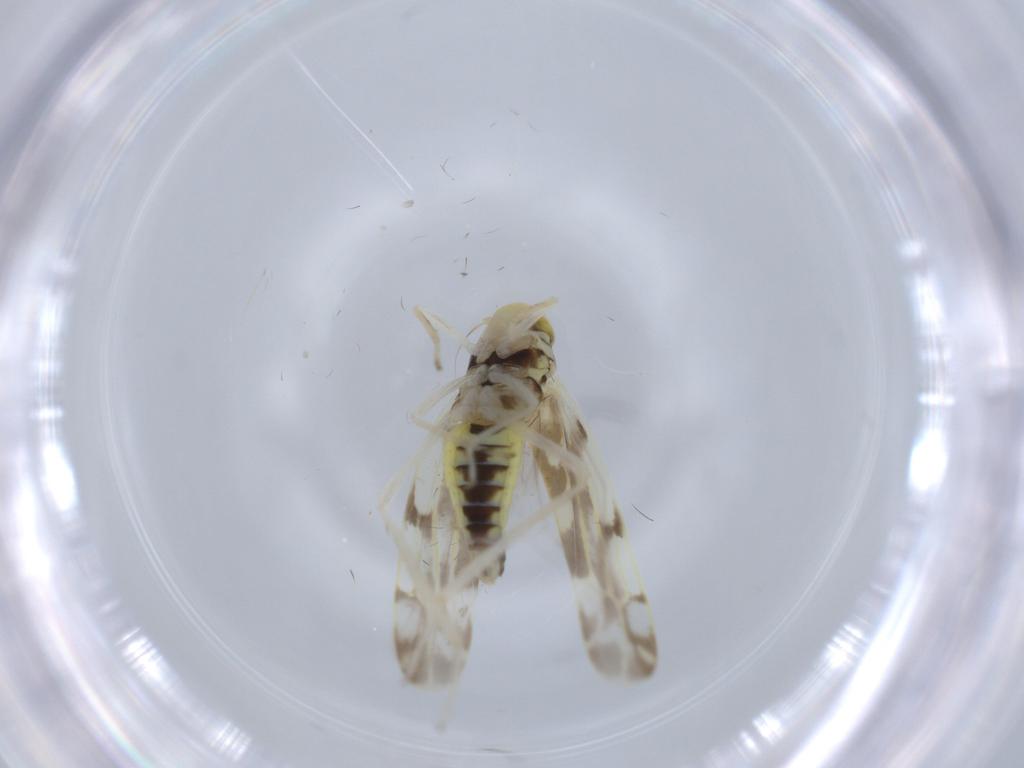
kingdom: Animalia
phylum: Arthropoda
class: Insecta
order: Hemiptera
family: Cicadellidae
